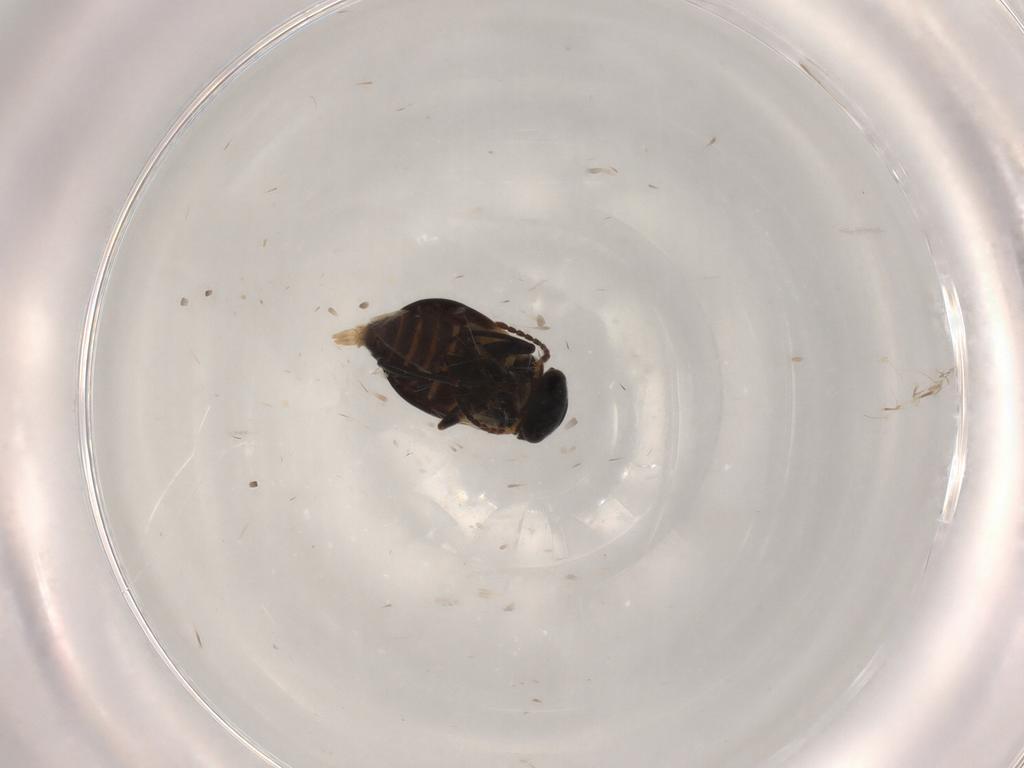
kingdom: Animalia
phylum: Arthropoda
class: Insecta
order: Coleoptera
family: Melyridae
